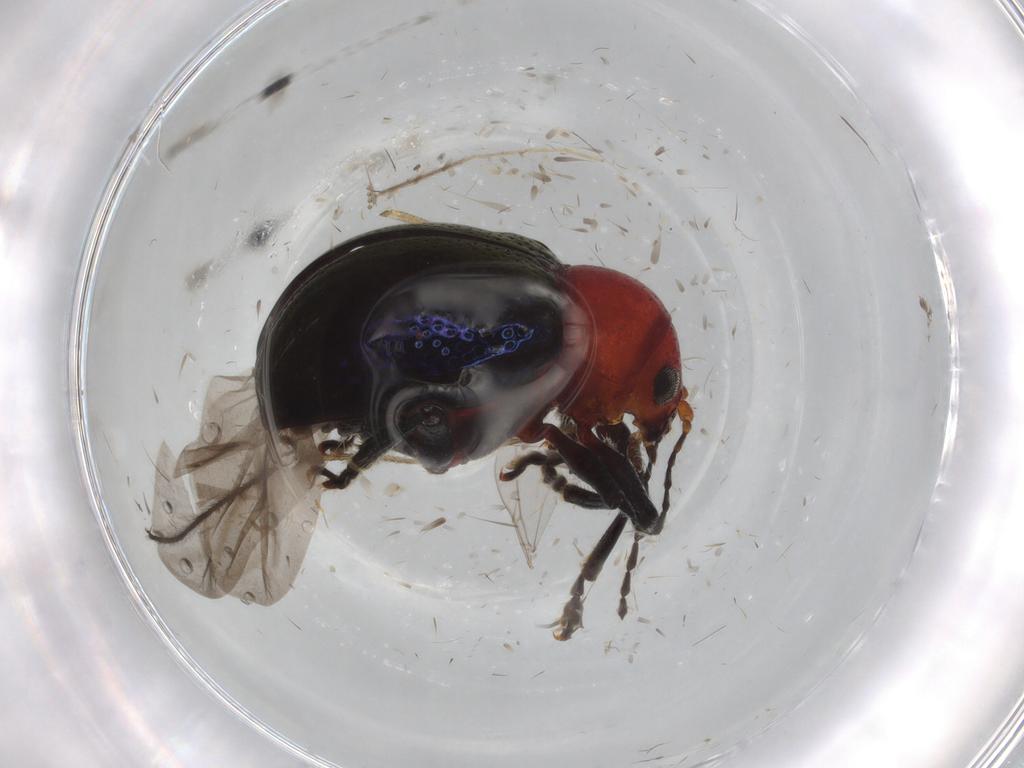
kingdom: Animalia
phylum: Arthropoda
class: Insecta
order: Coleoptera
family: Chrysomelidae
